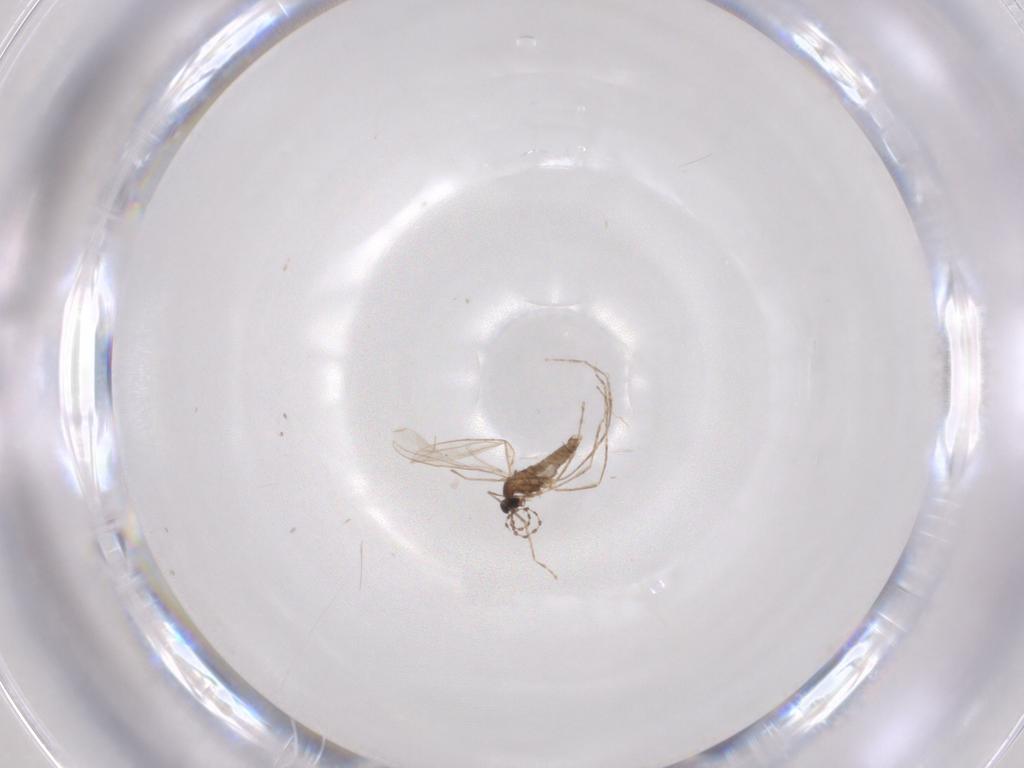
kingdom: Animalia
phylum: Arthropoda
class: Insecta
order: Diptera
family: Cecidomyiidae
